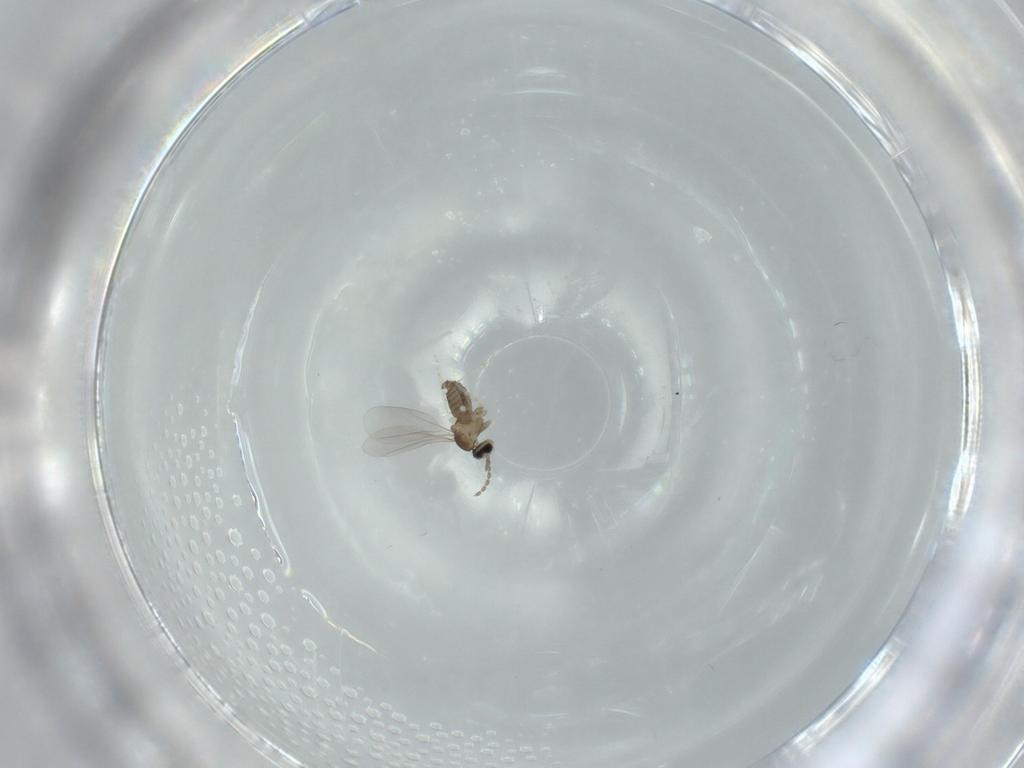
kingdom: Animalia
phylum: Arthropoda
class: Insecta
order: Diptera
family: Cecidomyiidae
